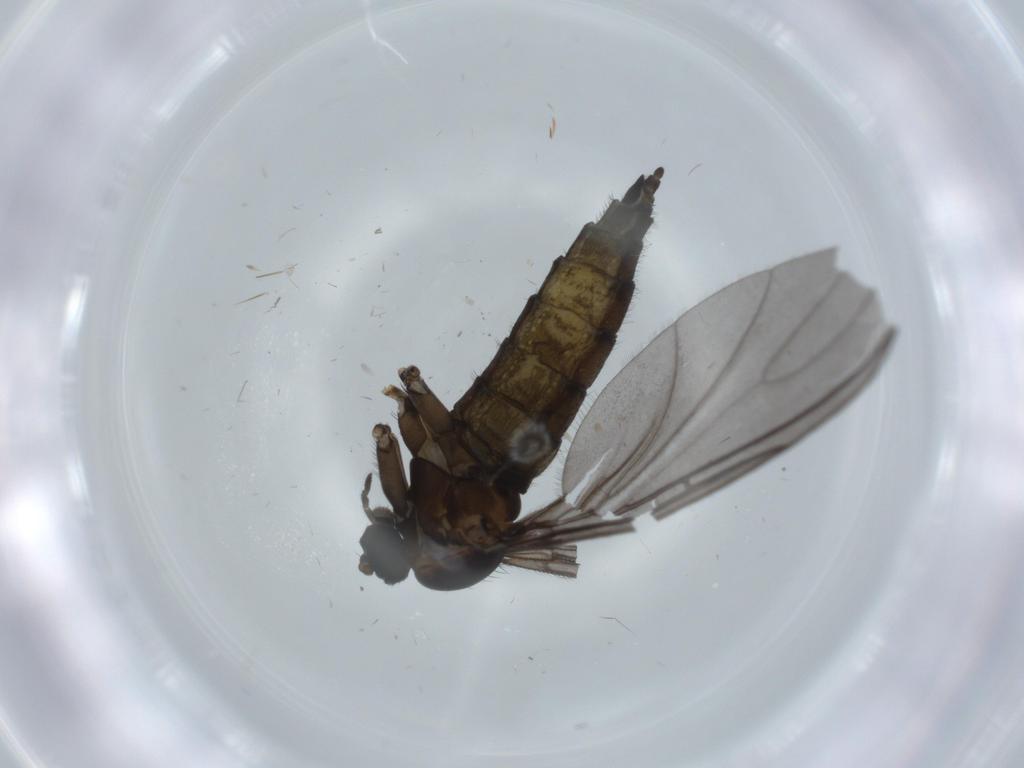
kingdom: Animalia
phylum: Arthropoda
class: Insecta
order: Diptera
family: Sciaridae
